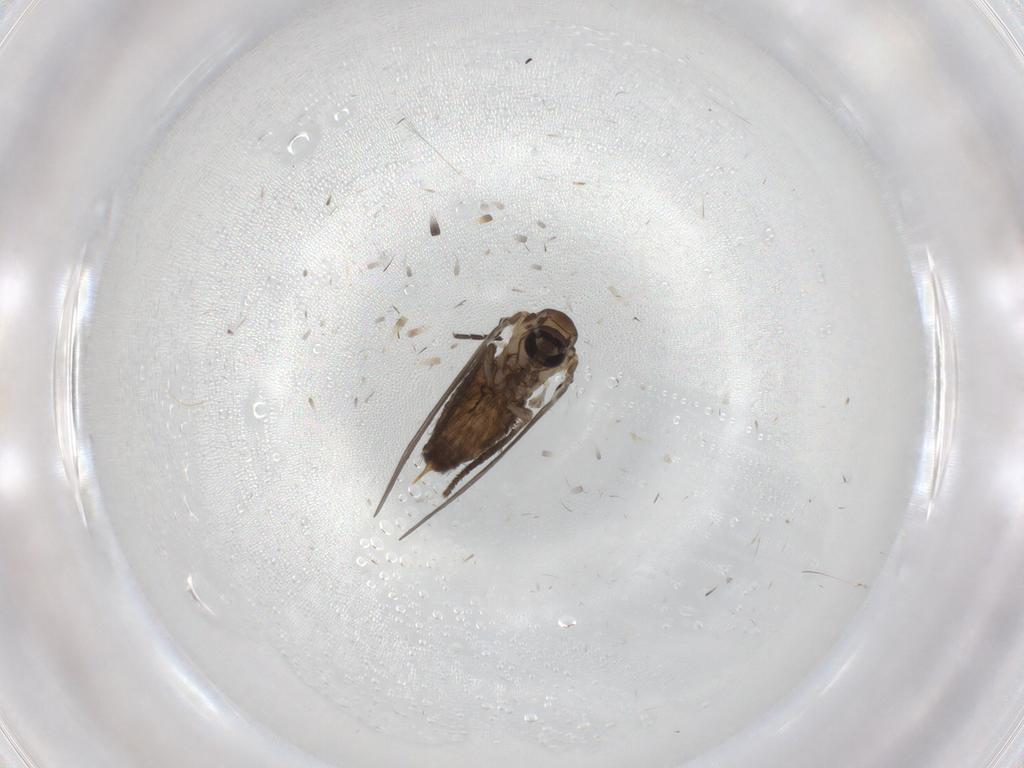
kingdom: Animalia
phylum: Arthropoda
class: Insecta
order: Diptera
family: Psychodidae
